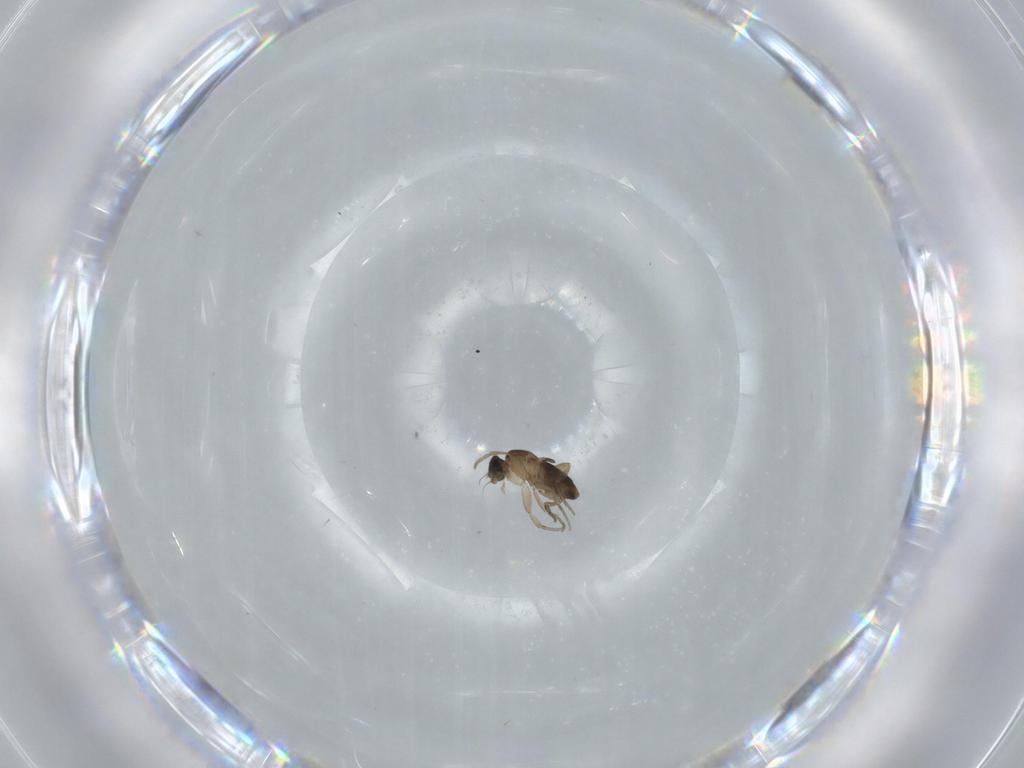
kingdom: Animalia
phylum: Arthropoda
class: Insecta
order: Diptera
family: Phoridae
